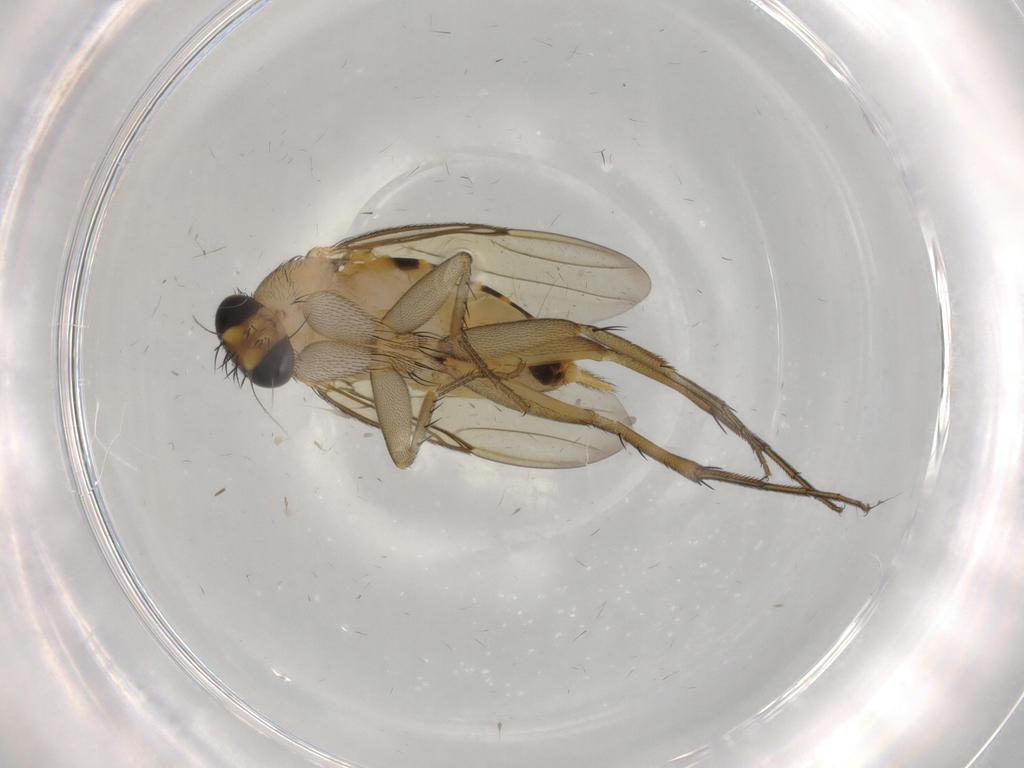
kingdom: Animalia
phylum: Arthropoda
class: Insecta
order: Diptera
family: Phoridae
